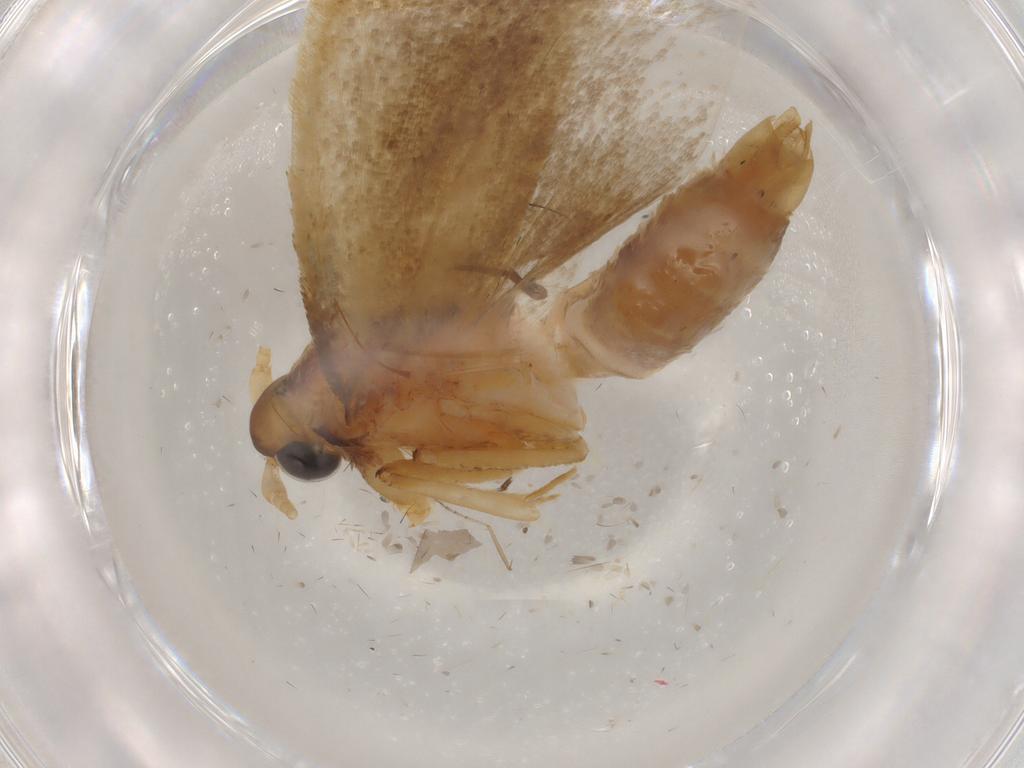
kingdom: Animalia
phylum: Arthropoda
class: Insecta
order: Lepidoptera
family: Lecithoceridae
